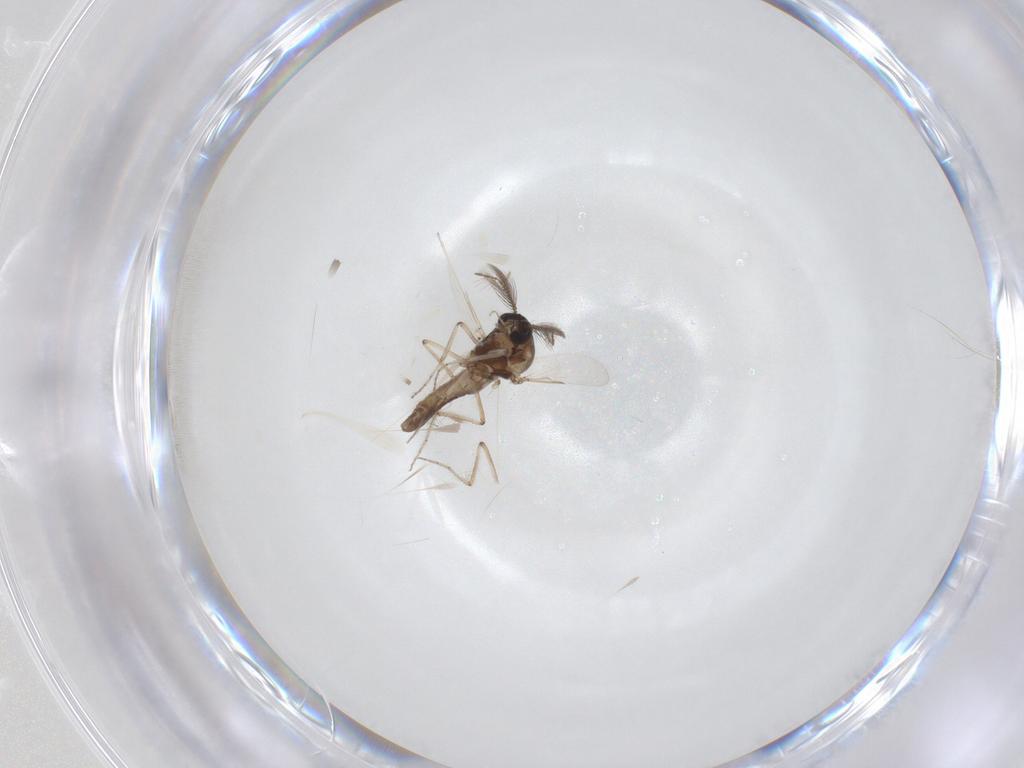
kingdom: Animalia
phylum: Arthropoda
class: Insecta
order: Diptera
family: Ceratopogonidae
